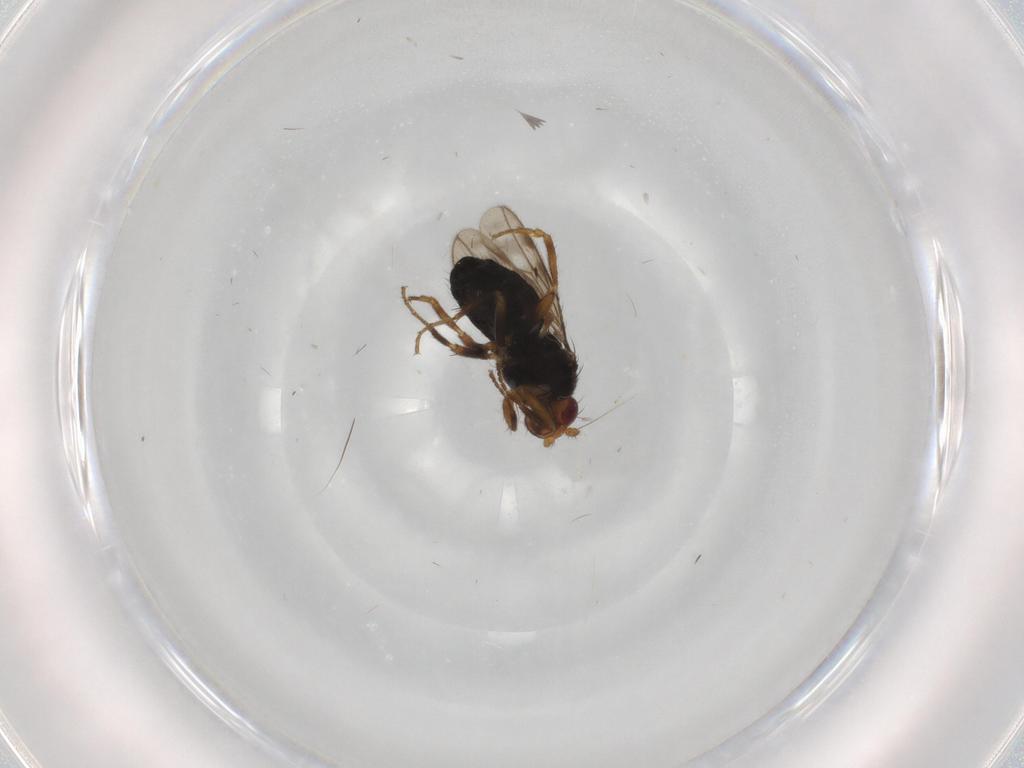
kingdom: Animalia
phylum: Arthropoda
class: Insecta
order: Diptera
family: Sphaeroceridae
